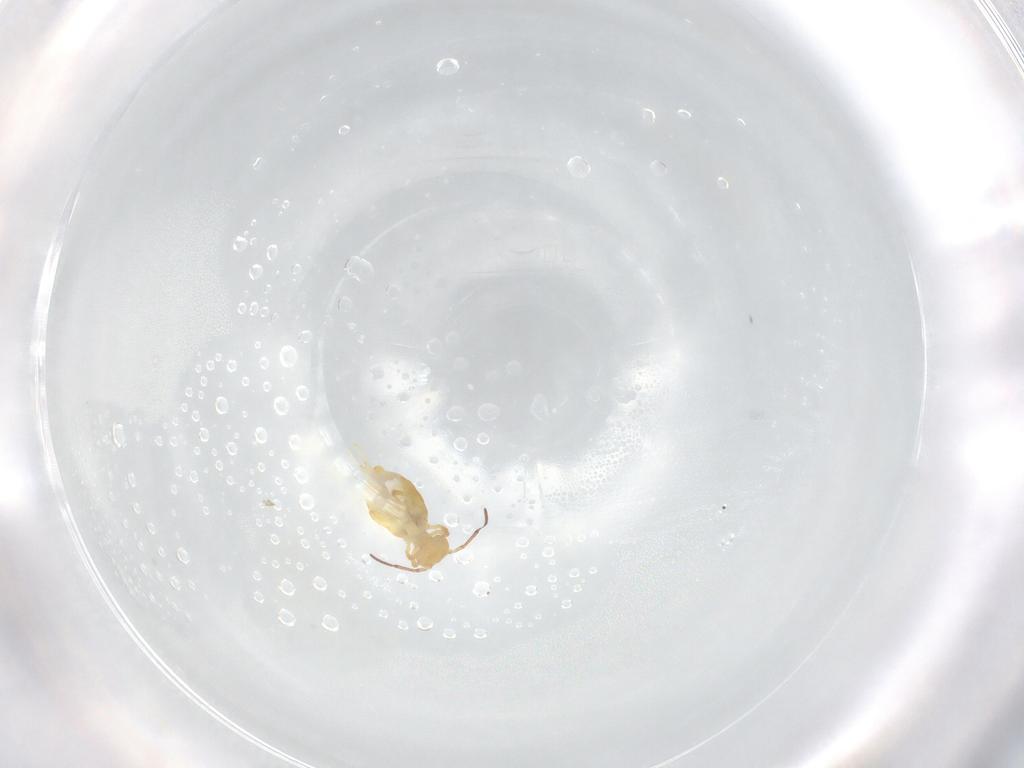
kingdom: Animalia
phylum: Arthropoda
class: Collembola
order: Symphypleona
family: Bourletiellidae
